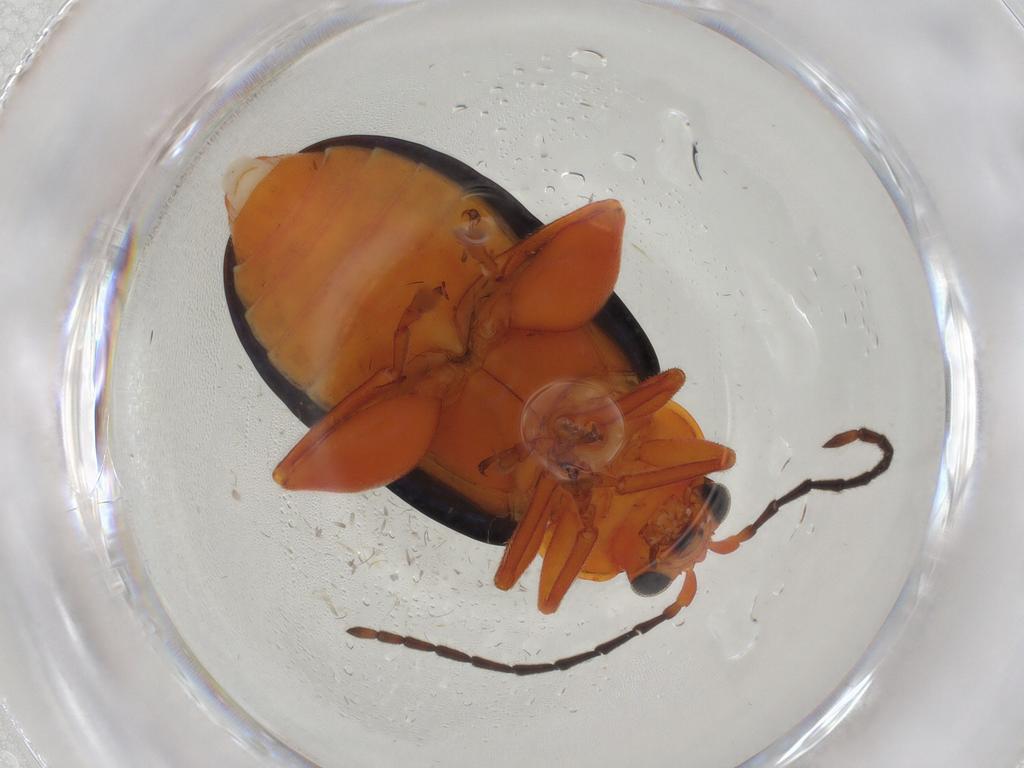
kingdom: Animalia
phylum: Arthropoda
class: Insecta
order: Coleoptera
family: Chrysomelidae
